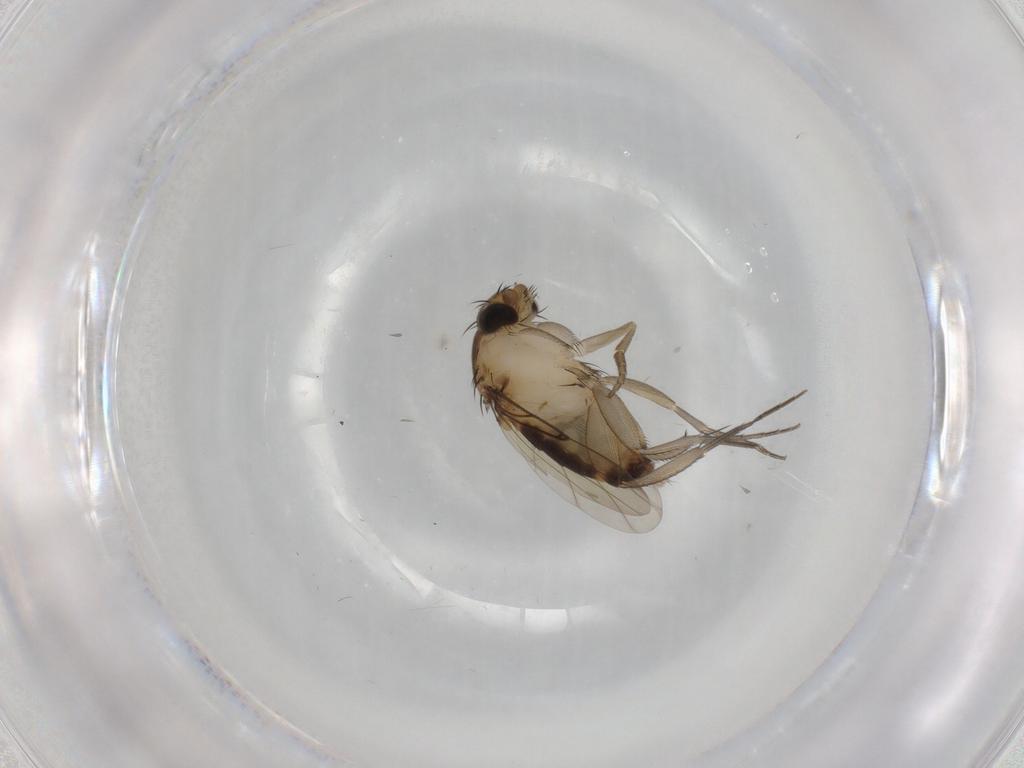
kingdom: Animalia
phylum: Arthropoda
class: Insecta
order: Diptera
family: Phoridae
